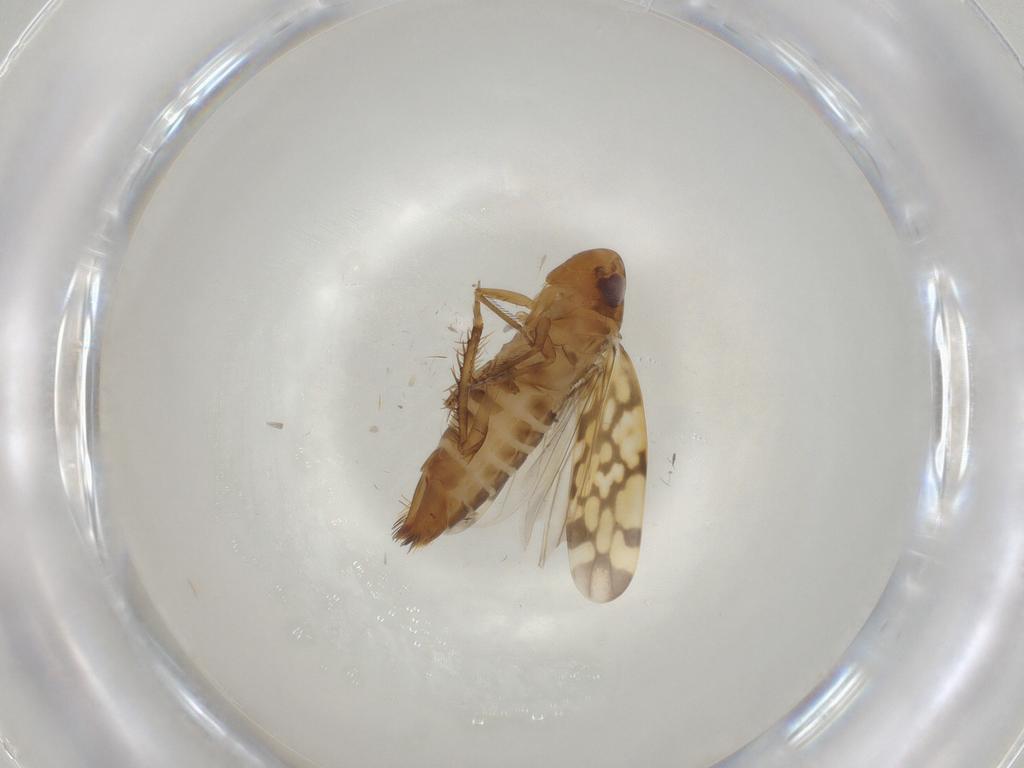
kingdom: Animalia
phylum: Arthropoda
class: Insecta
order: Hemiptera
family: Cicadellidae
